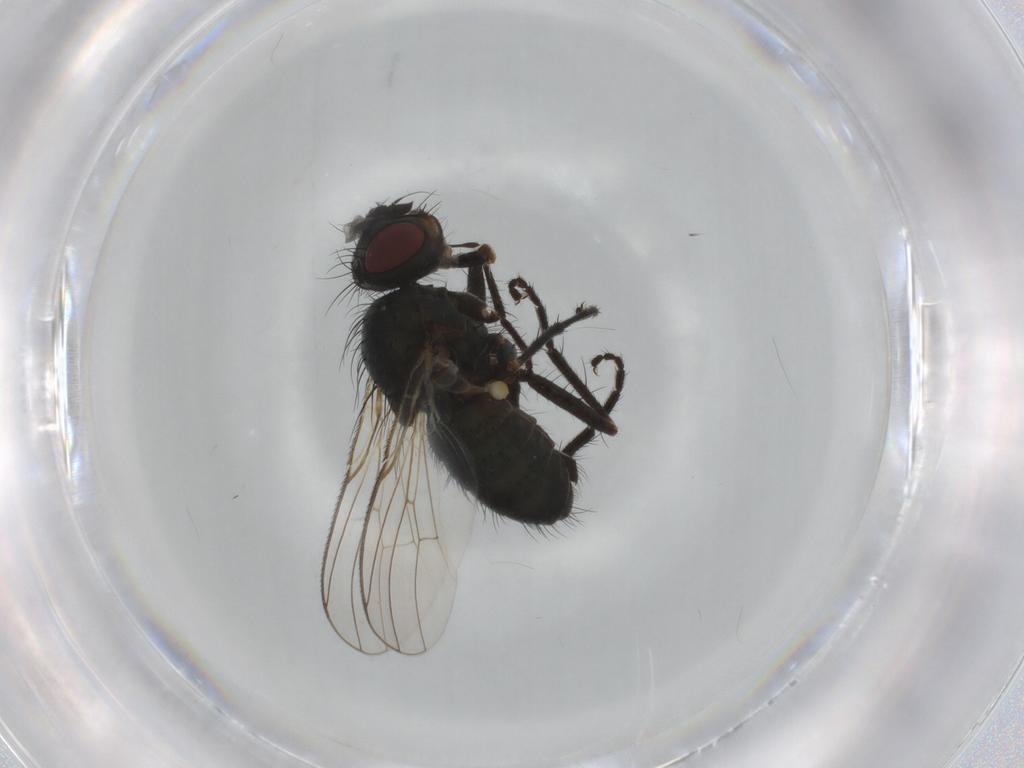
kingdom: Animalia
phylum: Arthropoda
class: Insecta
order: Diptera
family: Muscidae
